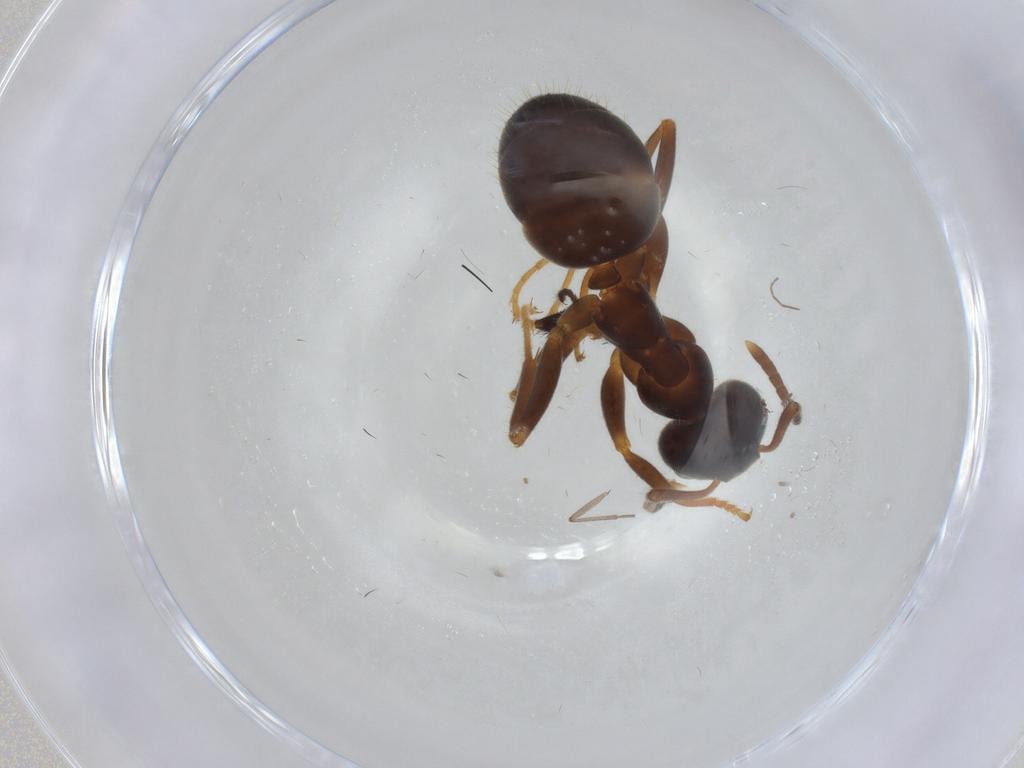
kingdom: Animalia
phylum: Arthropoda
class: Insecta
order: Hymenoptera
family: Formicidae
